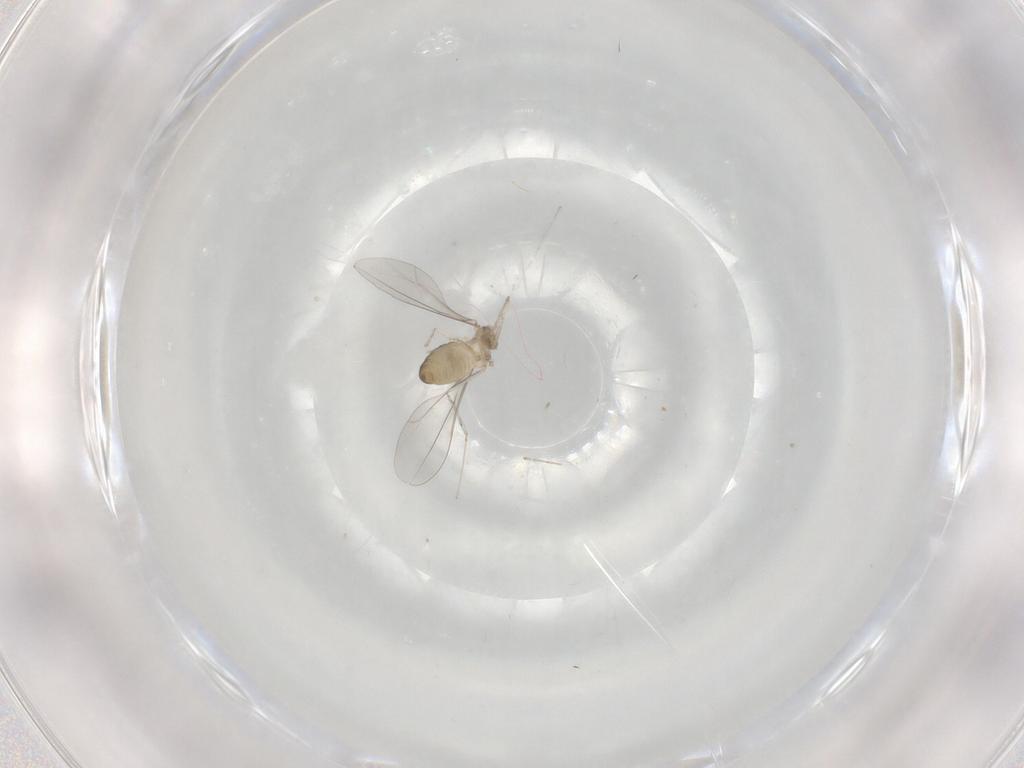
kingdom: Animalia
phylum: Arthropoda
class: Insecta
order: Diptera
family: Cecidomyiidae
